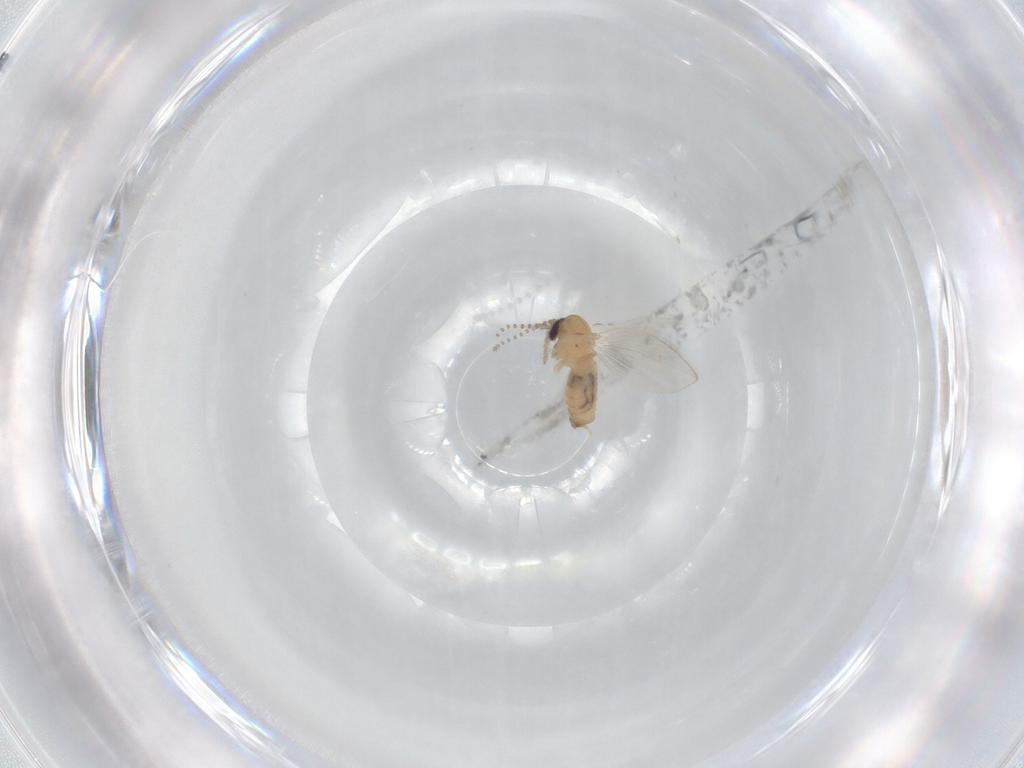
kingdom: Animalia
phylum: Arthropoda
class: Insecta
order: Diptera
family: Psychodidae
